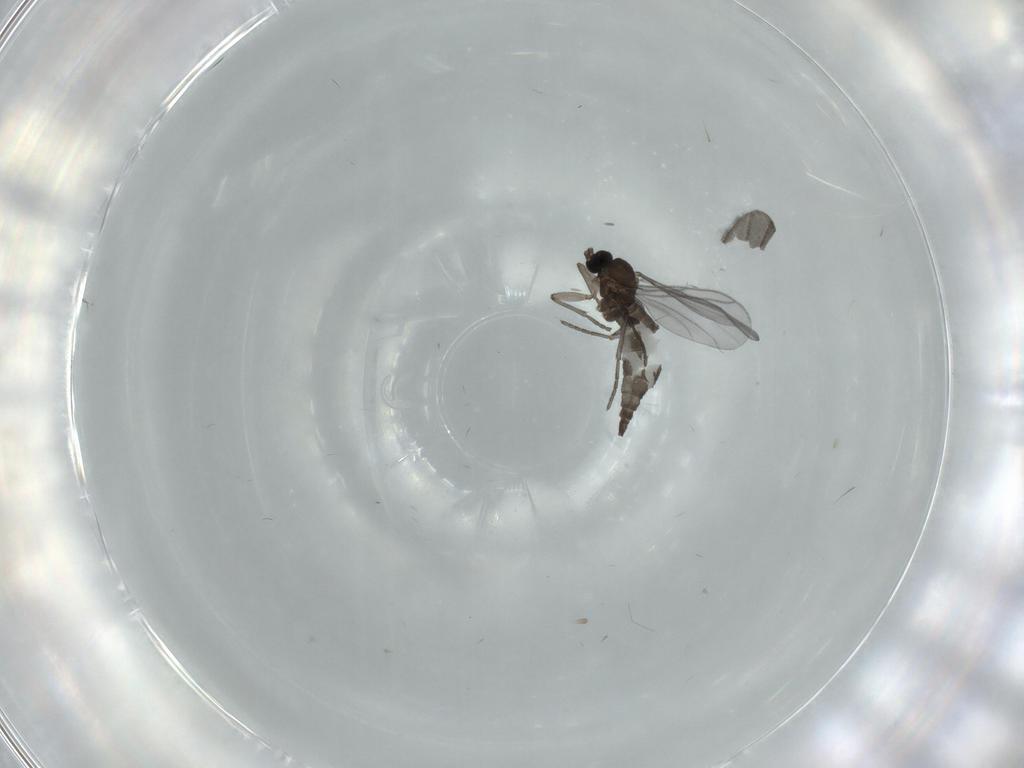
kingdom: Animalia
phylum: Arthropoda
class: Insecta
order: Diptera
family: Sciaridae
